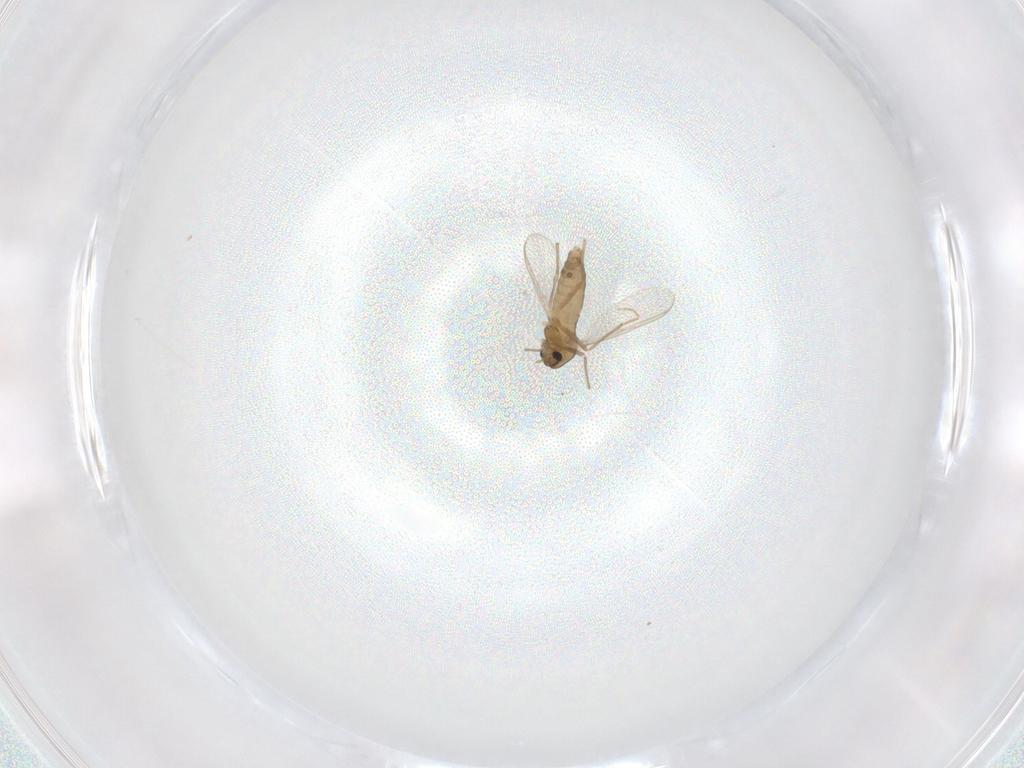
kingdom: Animalia
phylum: Arthropoda
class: Insecta
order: Diptera
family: Chironomidae
